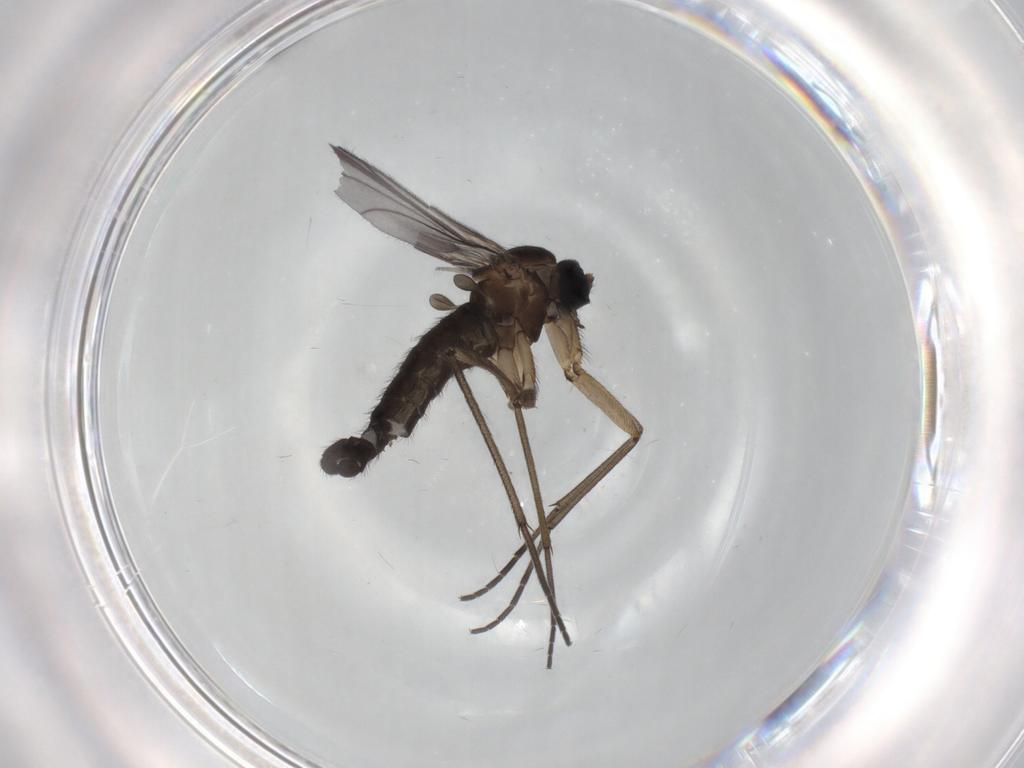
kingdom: Animalia
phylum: Arthropoda
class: Insecta
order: Diptera
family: Sciaridae
